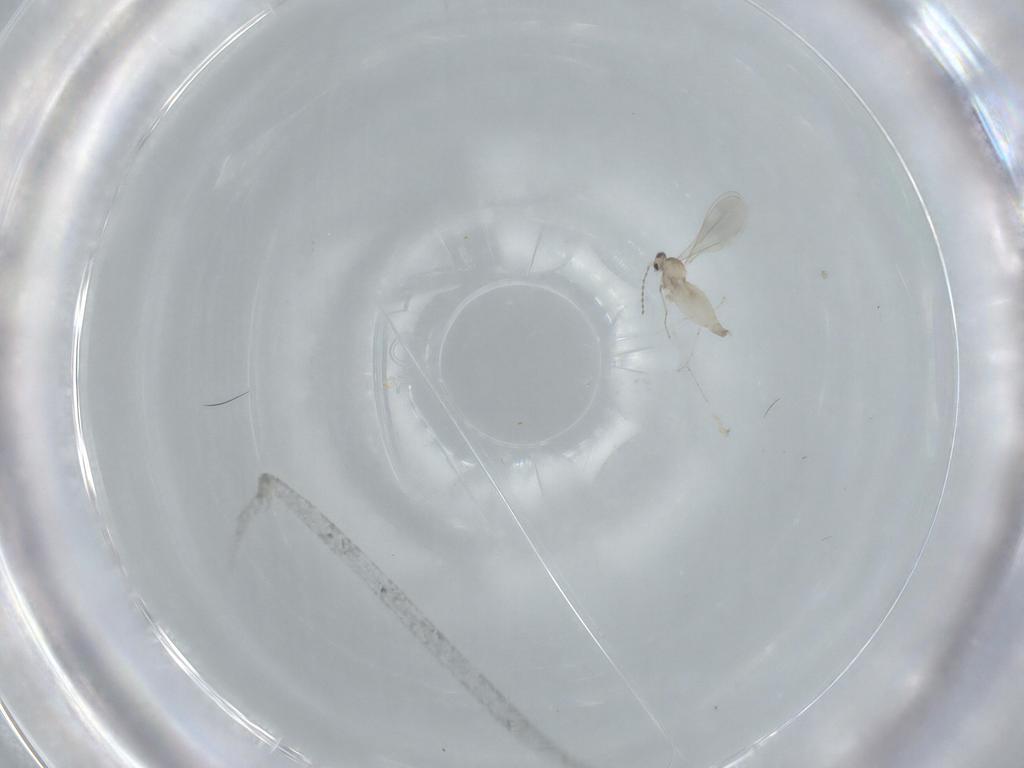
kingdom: Animalia
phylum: Arthropoda
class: Insecta
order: Diptera
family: Cecidomyiidae
